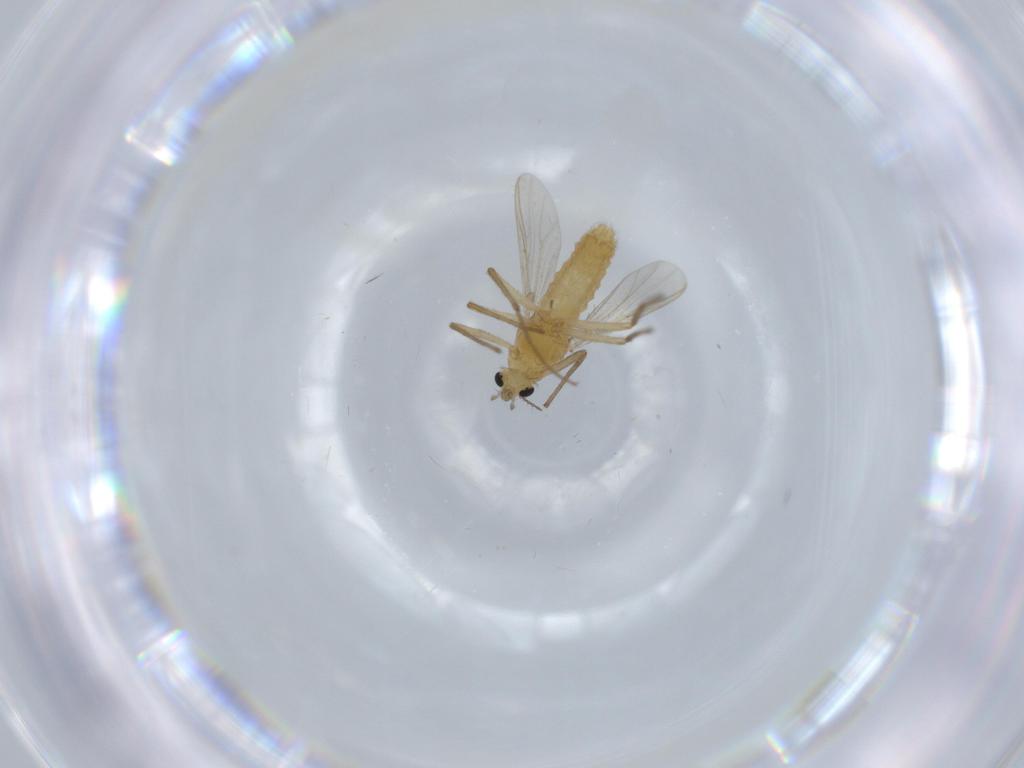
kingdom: Animalia
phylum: Arthropoda
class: Insecta
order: Diptera
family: Chironomidae
